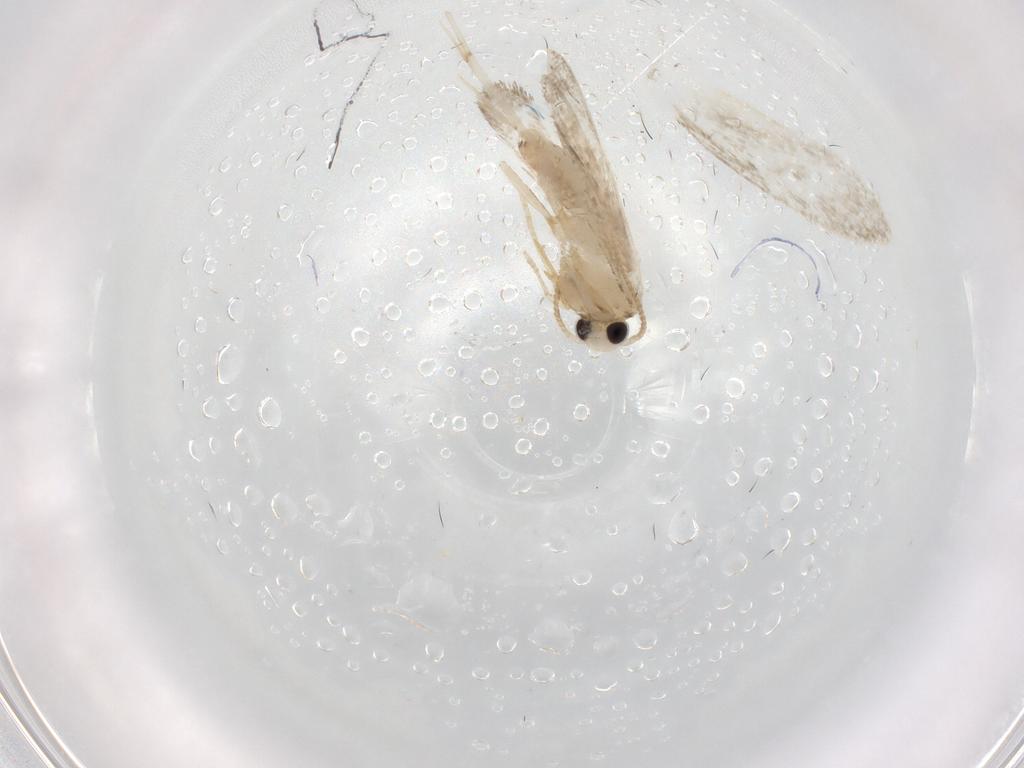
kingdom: Animalia
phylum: Arthropoda
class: Insecta
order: Lepidoptera
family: Psychidae
